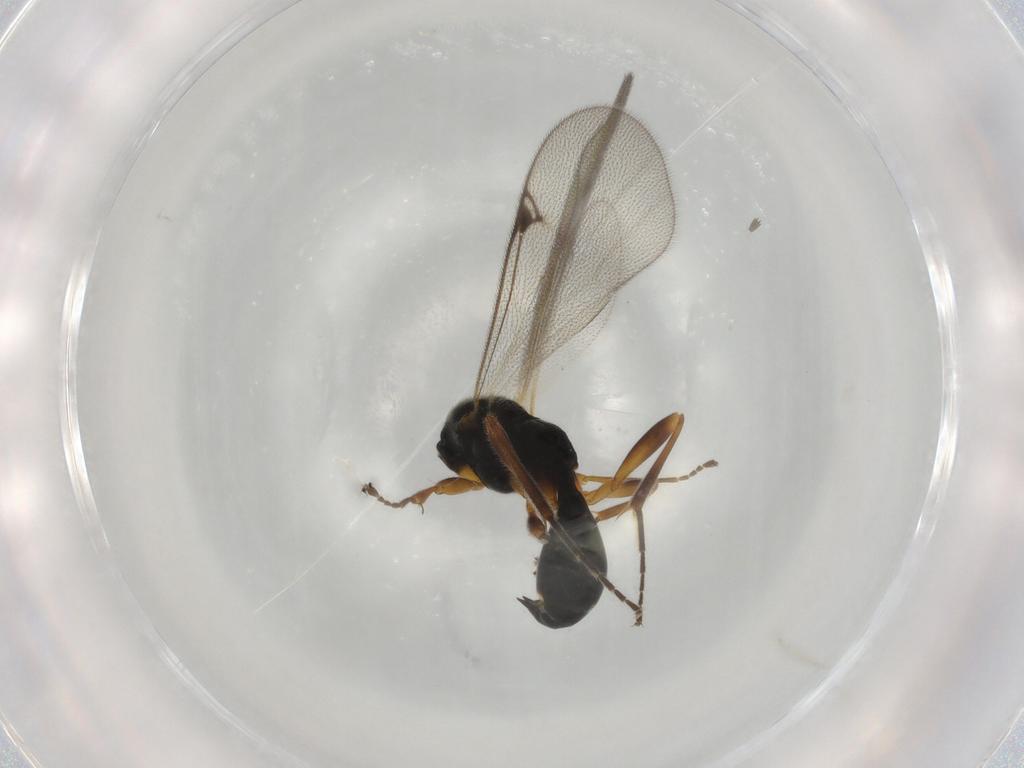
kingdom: Animalia
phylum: Arthropoda
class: Insecta
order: Hymenoptera
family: Proctotrupidae
